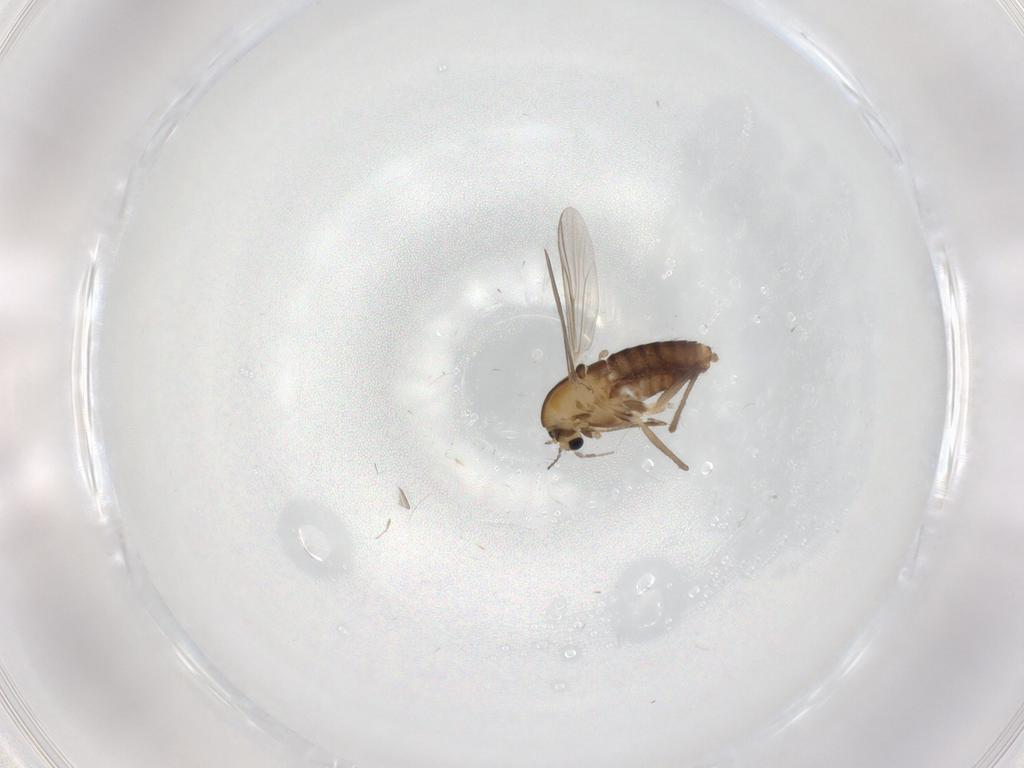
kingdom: Animalia
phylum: Arthropoda
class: Insecta
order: Diptera
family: Chironomidae
